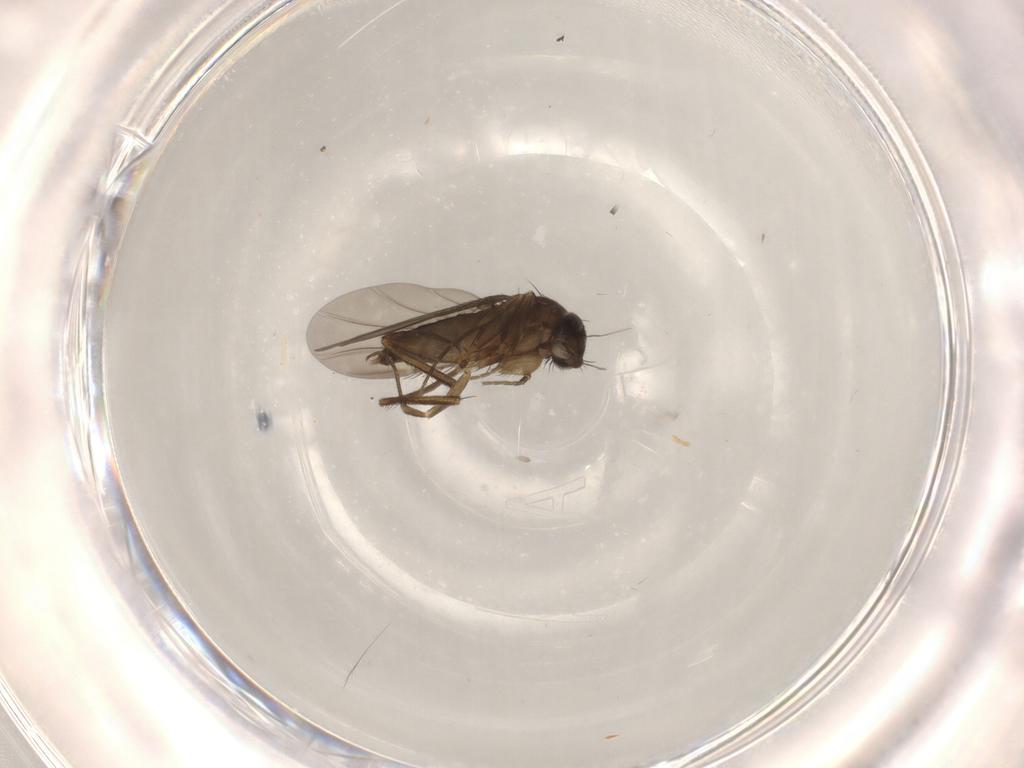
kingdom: Animalia
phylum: Arthropoda
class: Insecta
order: Diptera
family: Phoridae
